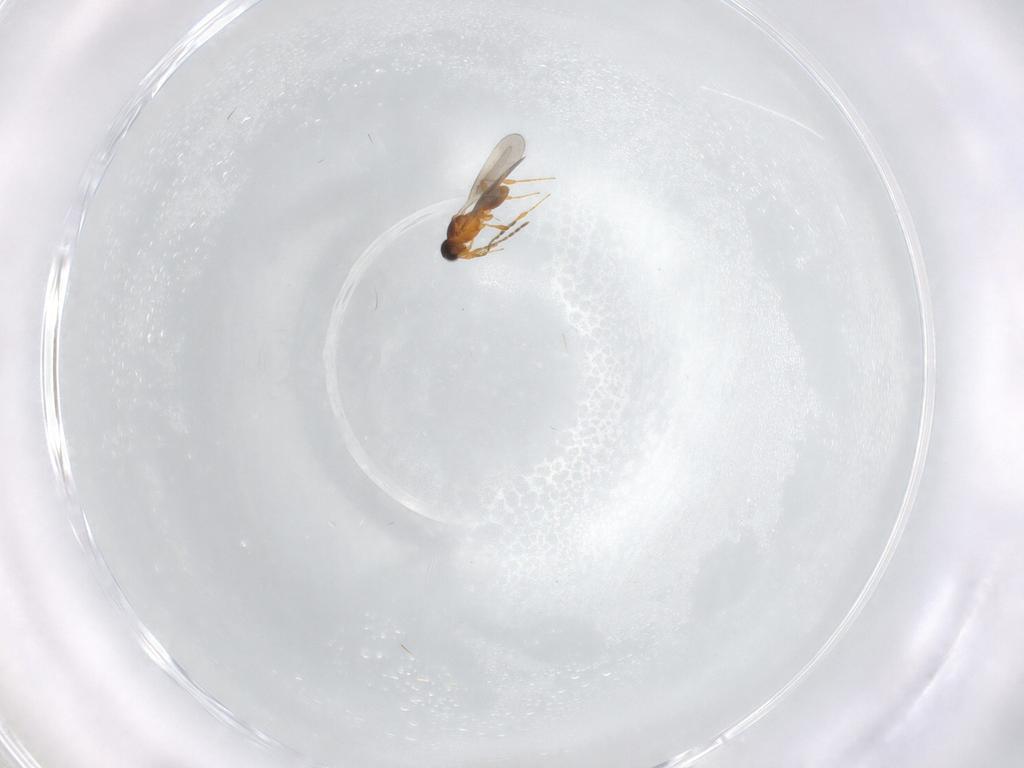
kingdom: Animalia
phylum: Arthropoda
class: Insecta
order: Hymenoptera
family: Platygastridae
